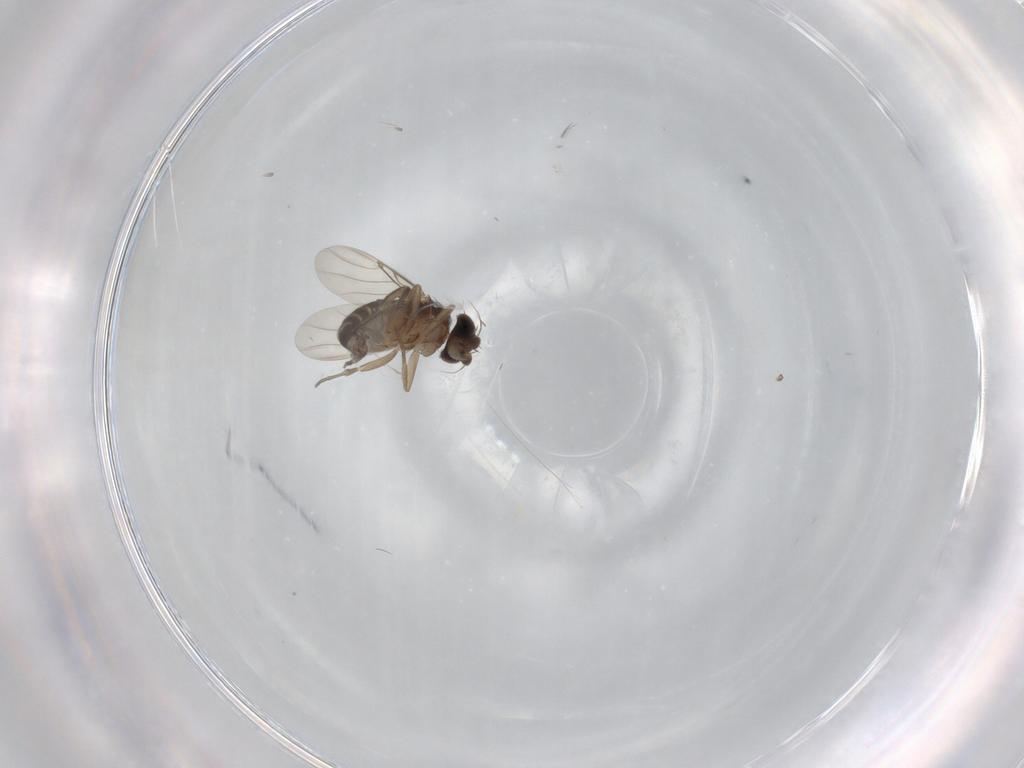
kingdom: Animalia
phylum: Arthropoda
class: Insecta
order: Diptera
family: Phoridae
